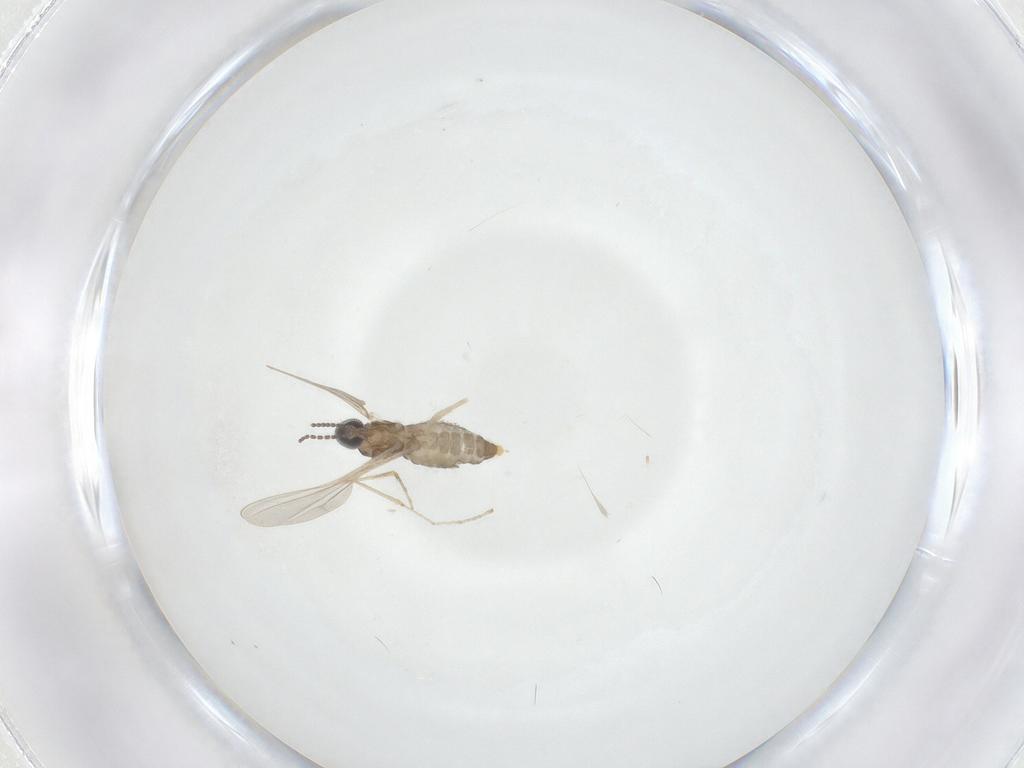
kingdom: Animalia
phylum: Arthropoda
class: Insecta
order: Diptera
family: Cecidomyiidae
